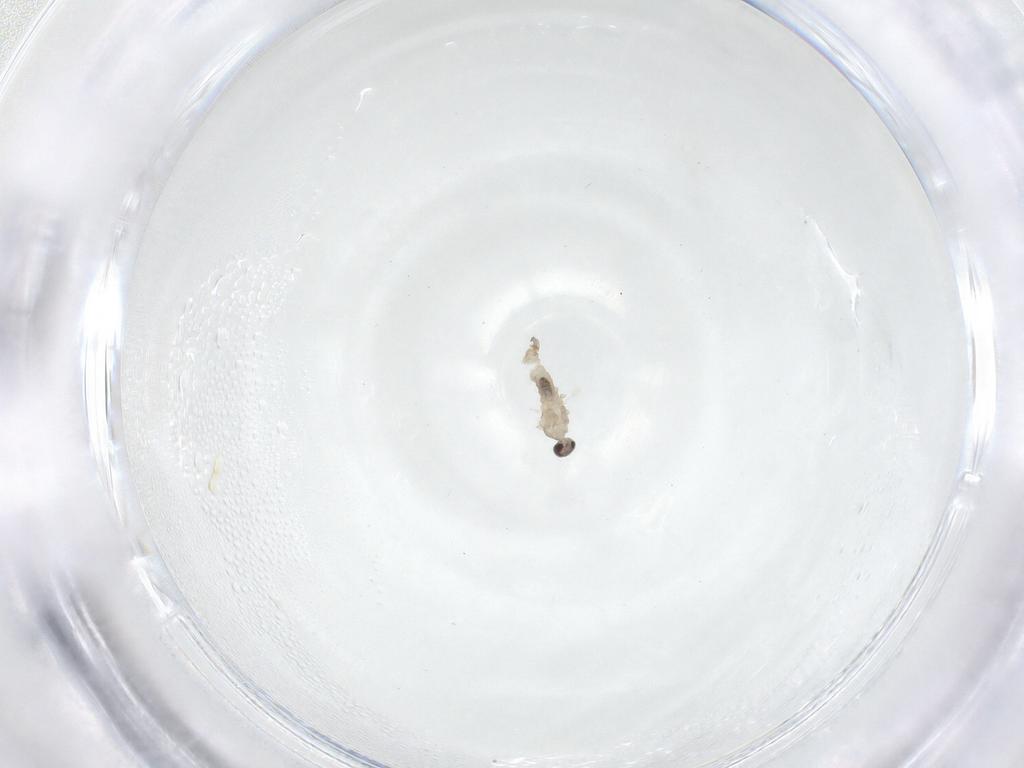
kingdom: Animalia
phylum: Arthropoda
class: Insecta
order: Diptera
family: Cecidomyiidae
